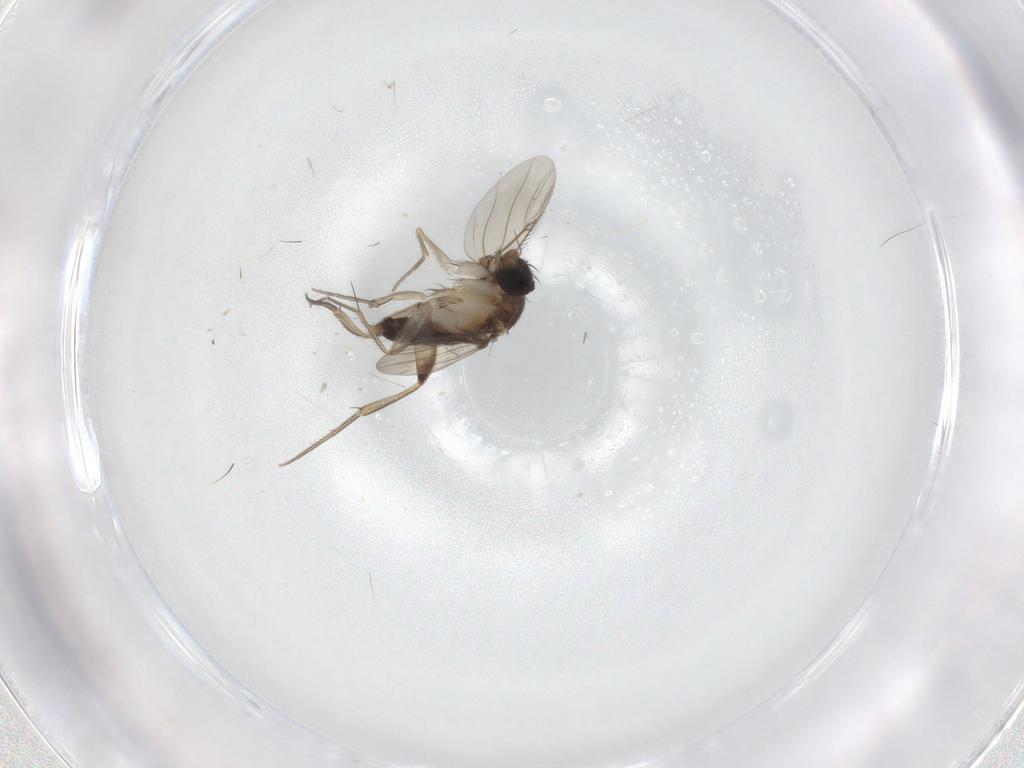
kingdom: Animalia
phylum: Arthropoda
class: Insecta
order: Diptera
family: Phoridae
